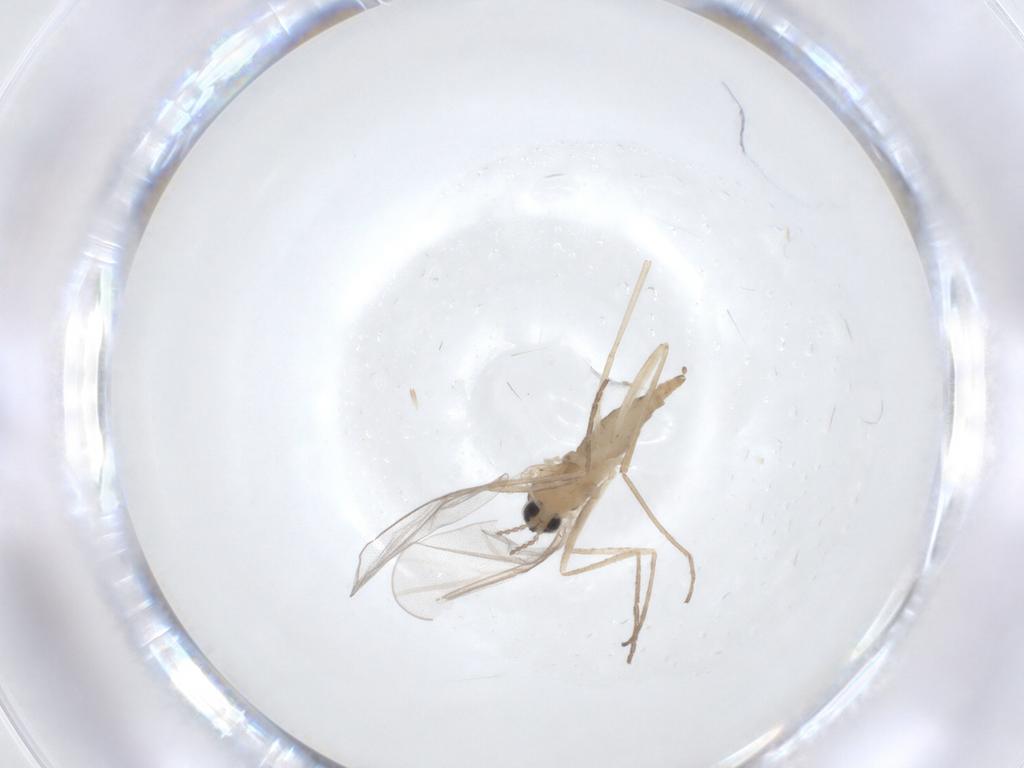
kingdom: Animalia
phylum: Arthropoda
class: Insecta
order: Diptera
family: Cecidomyiidae
